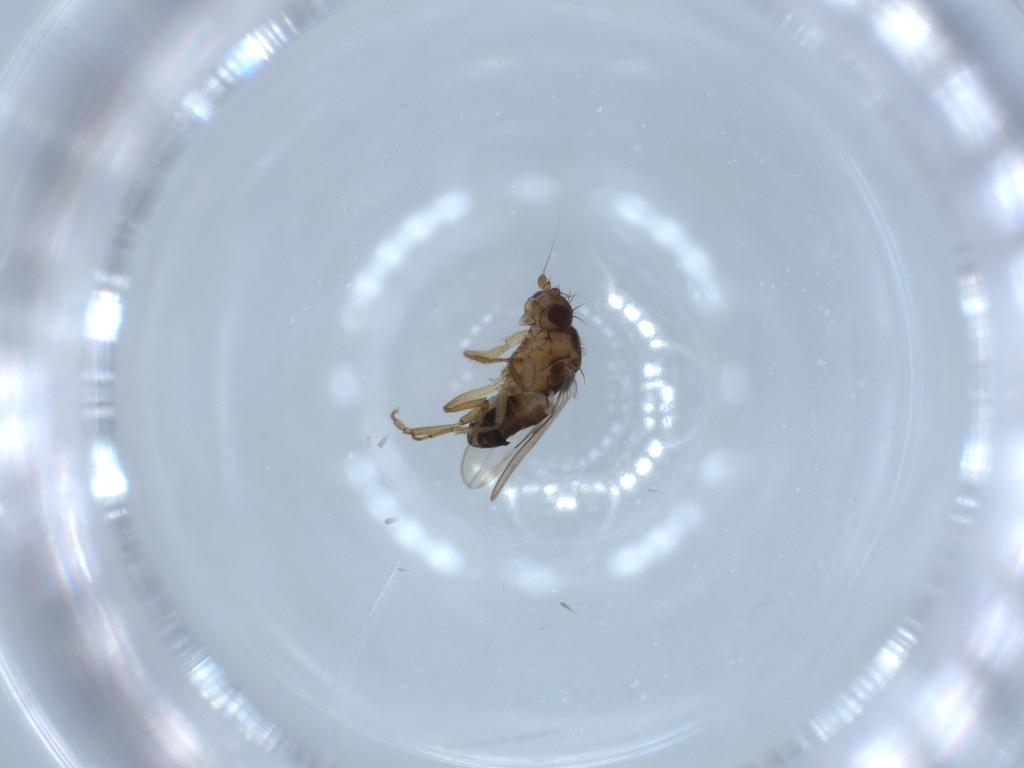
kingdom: Animalia
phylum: Arthropoda
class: Insecta
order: Diptera
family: Sphaeroceridae
